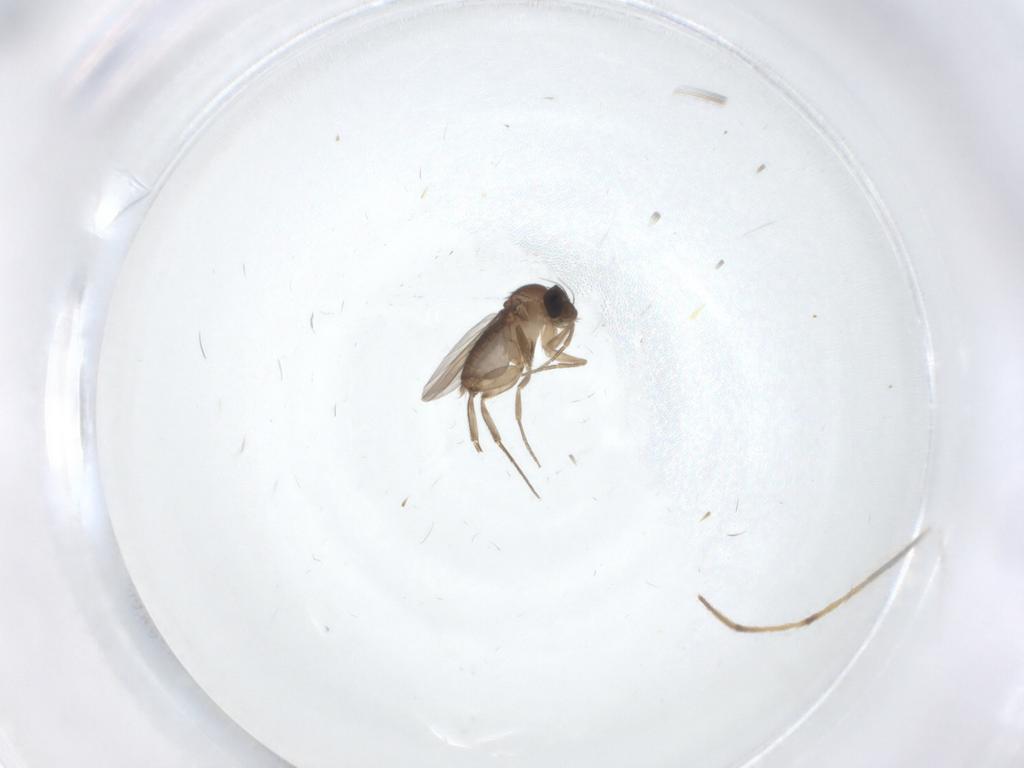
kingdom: Animalia
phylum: Arthropoda
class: Insecta
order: Diptera
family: Phoridae
